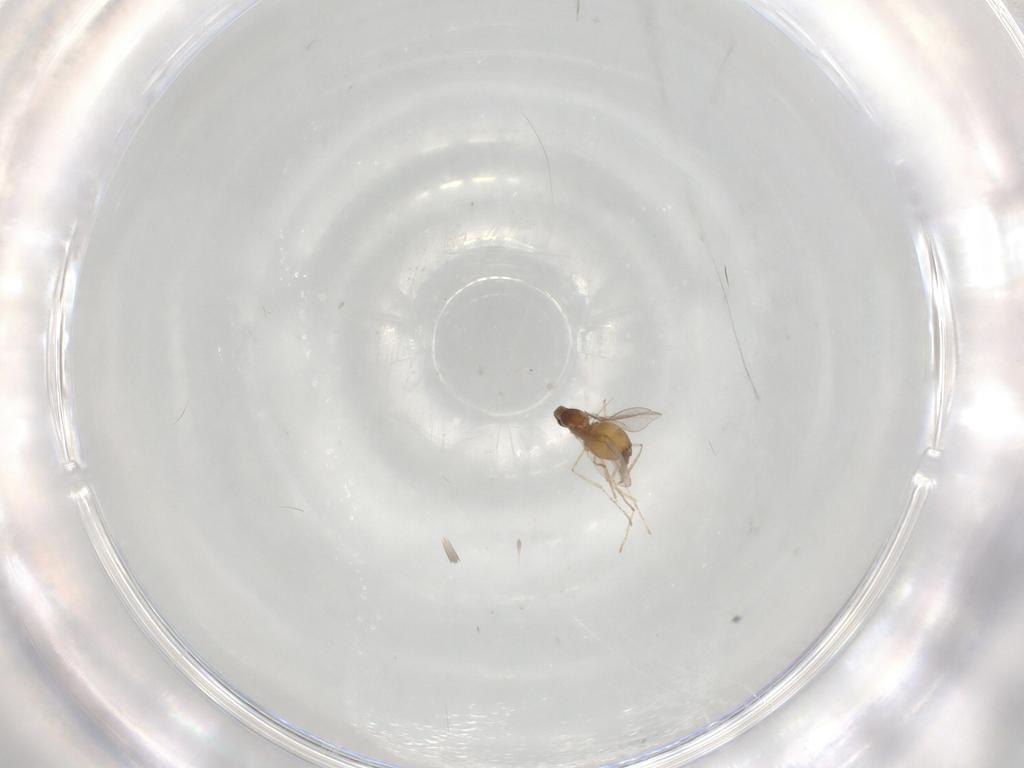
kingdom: Animalia
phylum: Arthropoda
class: Insecta
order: Diptera
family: Cecidomyiidae
